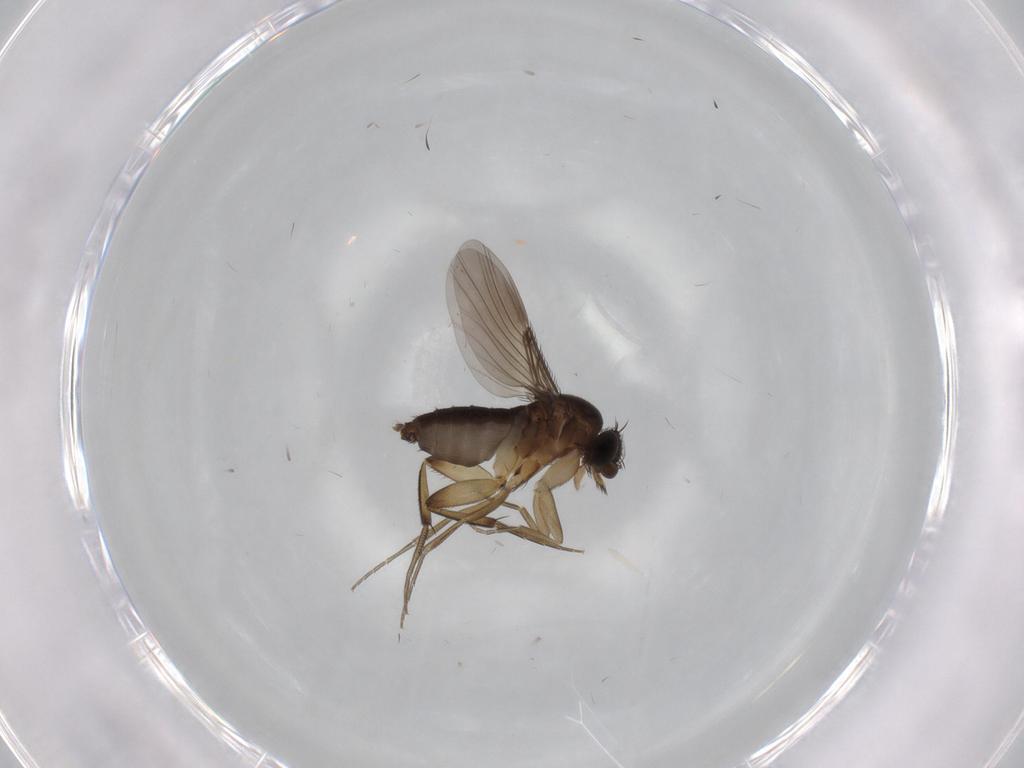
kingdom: Animalia
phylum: Arthropoda
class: Insecta
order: Diptera
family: Phoridae
